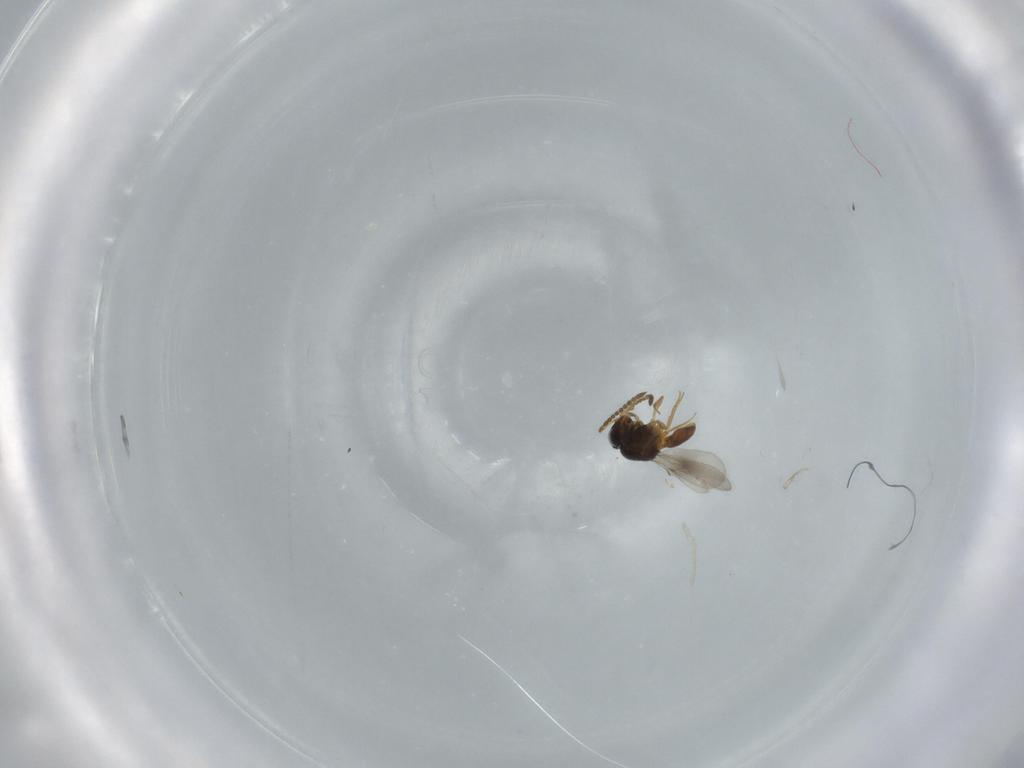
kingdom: Animalia
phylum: Arthropoda
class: Insecta
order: Hymenoptera
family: Scelionidae
